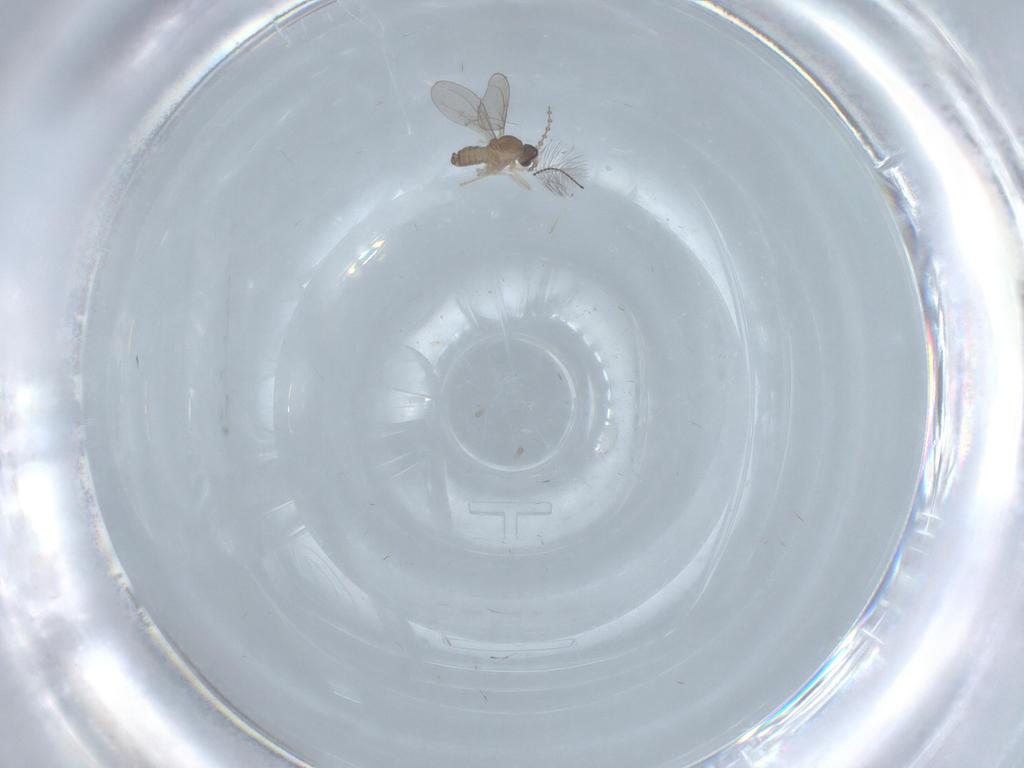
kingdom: Animalia
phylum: Arthropoda
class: Insecta
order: Diptera
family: Cecidomyiidae
